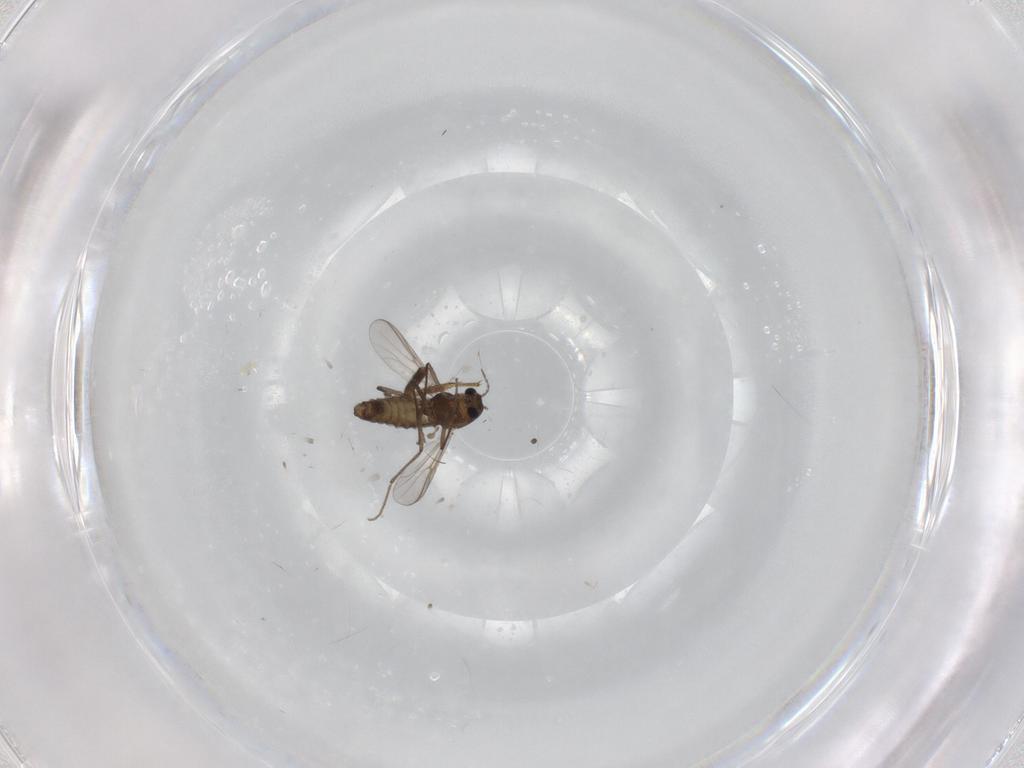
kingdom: Animalia
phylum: Arthropoda
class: Insecta
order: Diptera
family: Chironomidae
